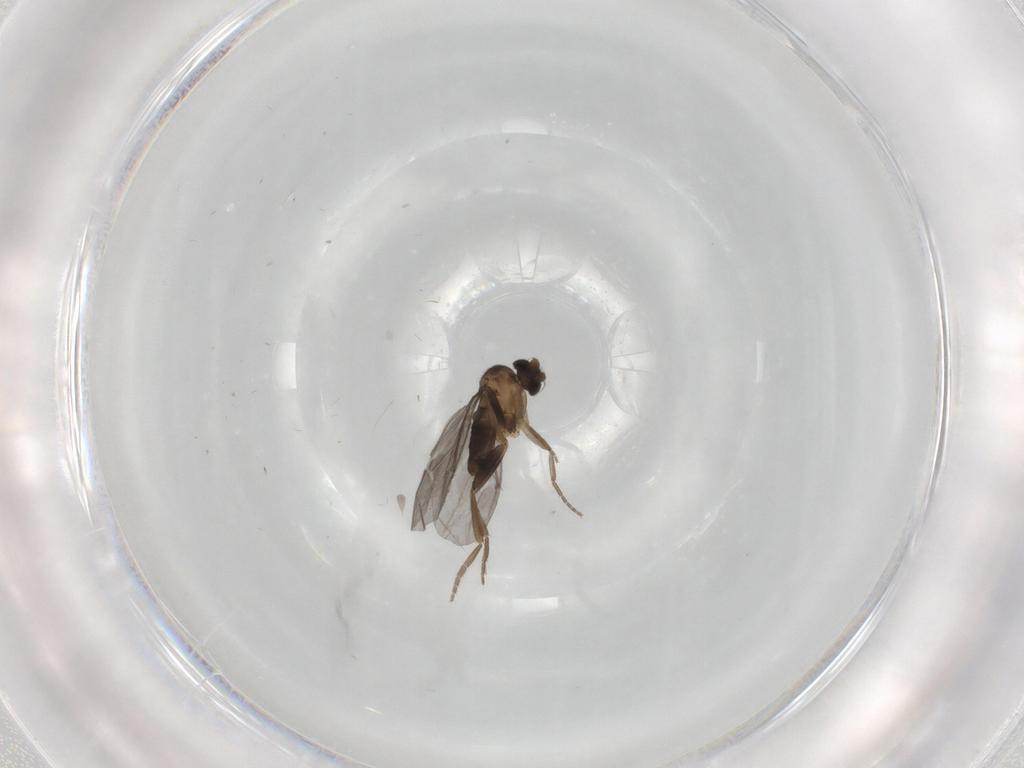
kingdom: Animalia
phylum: Arthropoda
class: Insecta
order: Diptera
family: Phoridae
